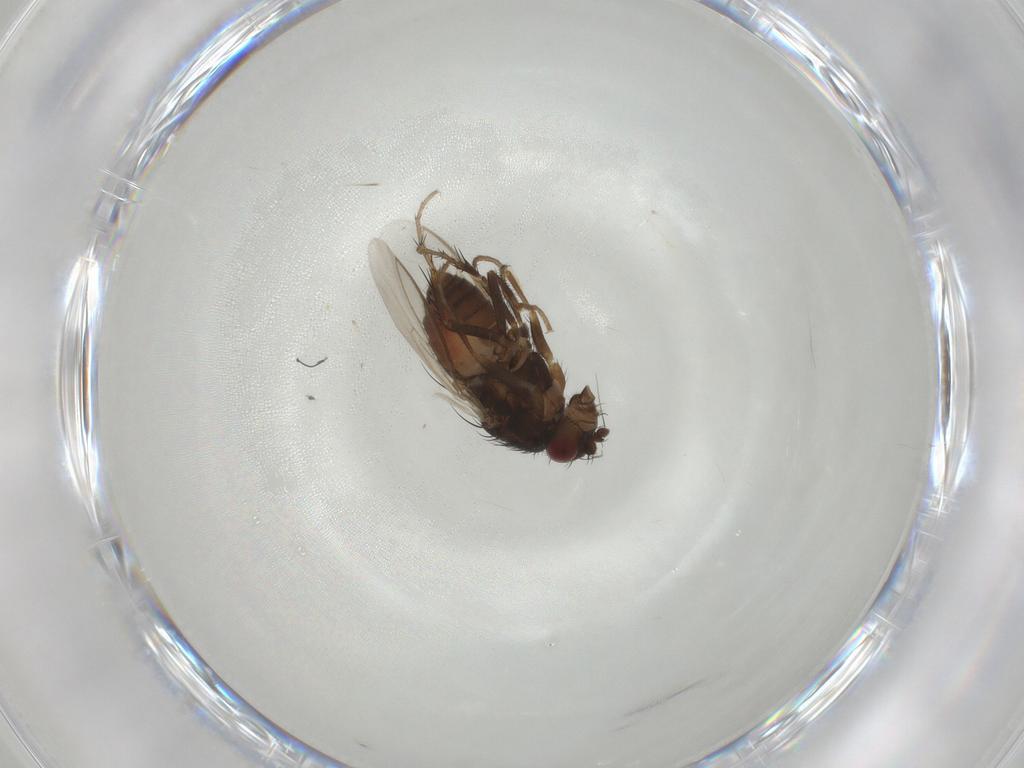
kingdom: Animalia
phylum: Arthropoda
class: Insecta
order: Diptera
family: Sphaeroceridae
